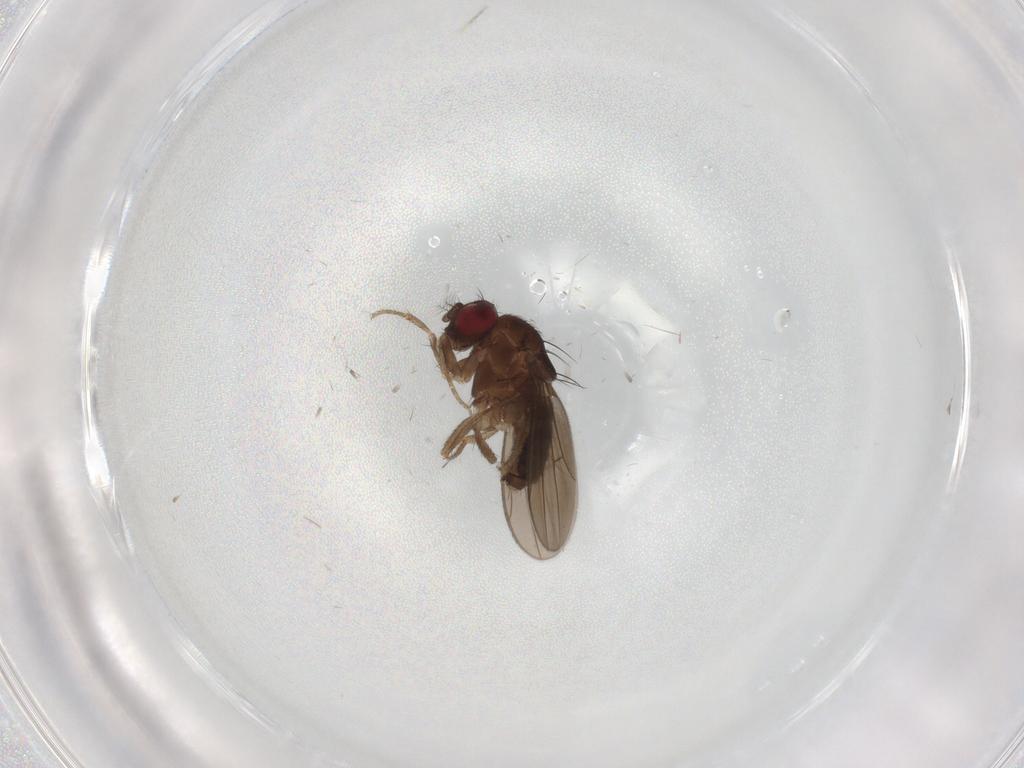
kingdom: Animalia
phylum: Arthropoda
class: Insecta
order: Diptera
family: Drosophilidae
